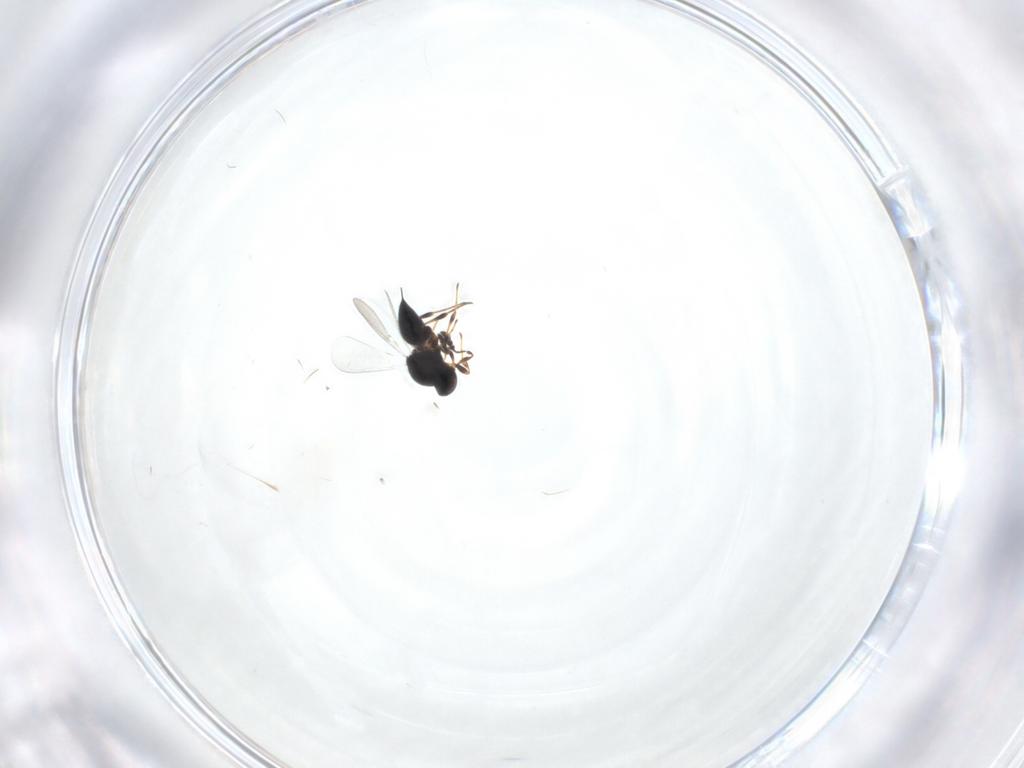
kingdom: Animalia
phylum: Arthropoda
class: Insecta
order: Hymenoptera
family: Platygastridae
